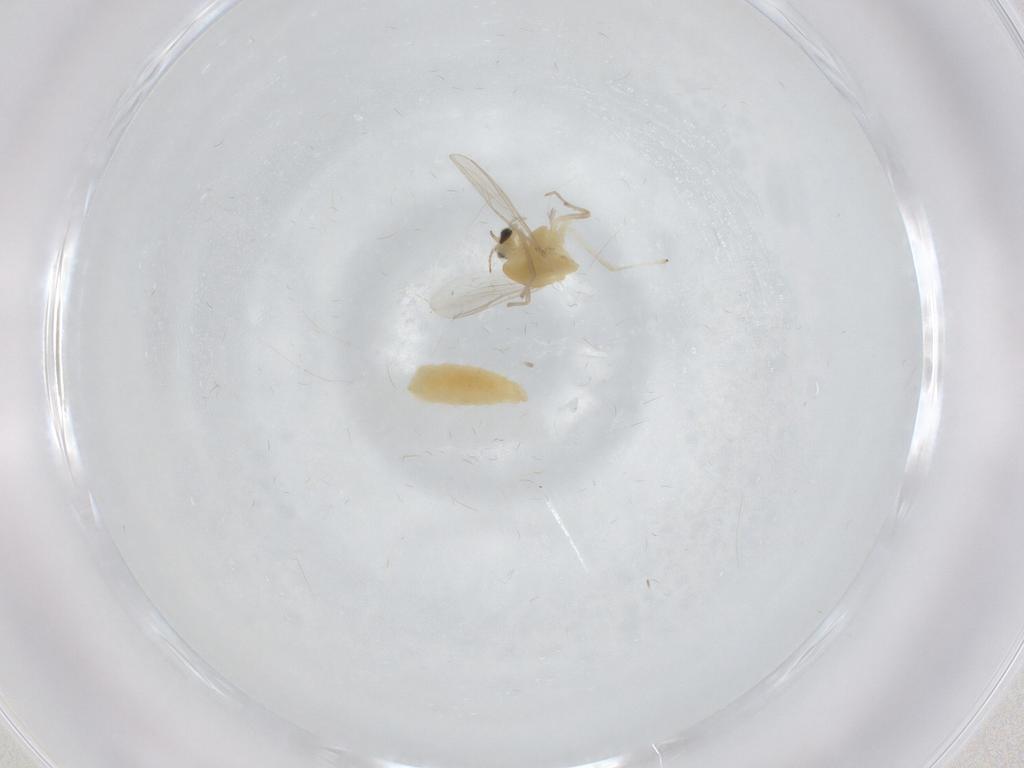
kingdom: Animalia
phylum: Arthropoda
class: Insecta
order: Diptera
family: Chironomidae
